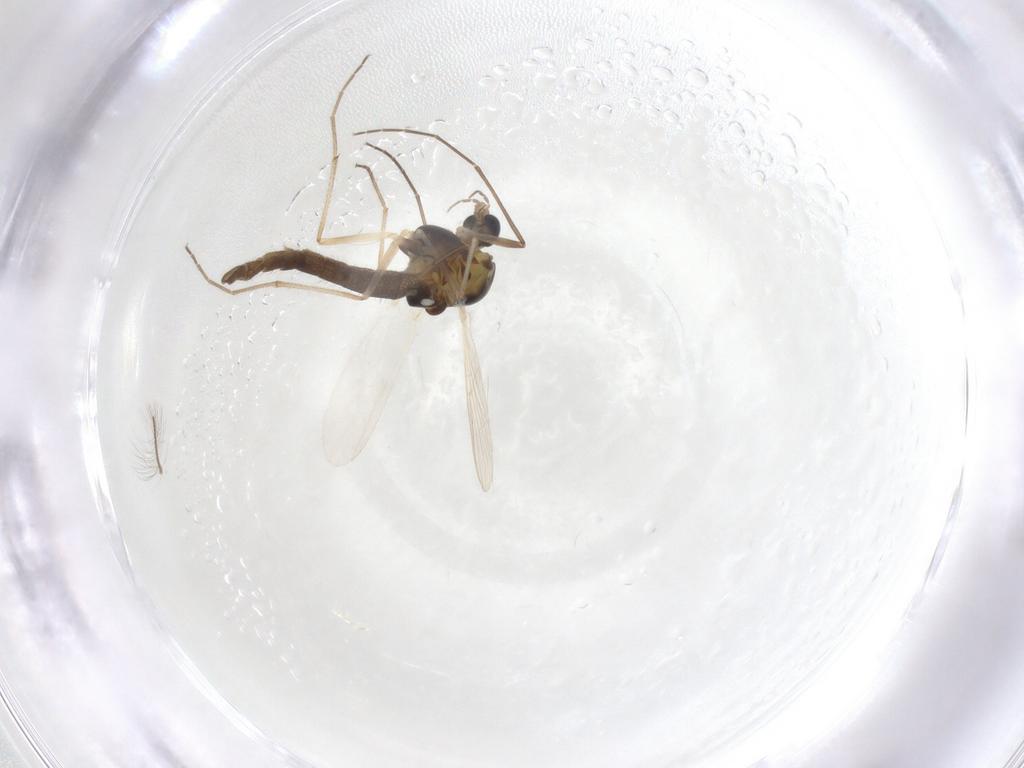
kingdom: Animalia
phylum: Arthropoda
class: Insecta
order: Diptera
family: Chironomidae
